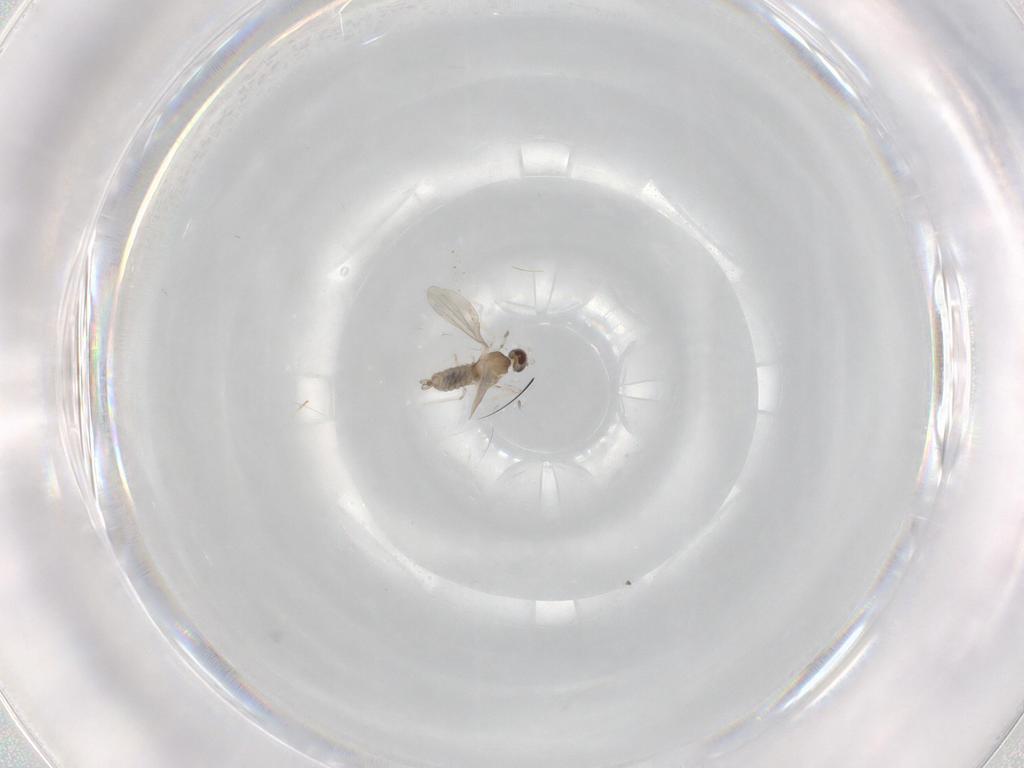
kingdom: Animalia
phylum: Arthropoda
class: Insecta
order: Diptera
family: Cecidomyiidae
